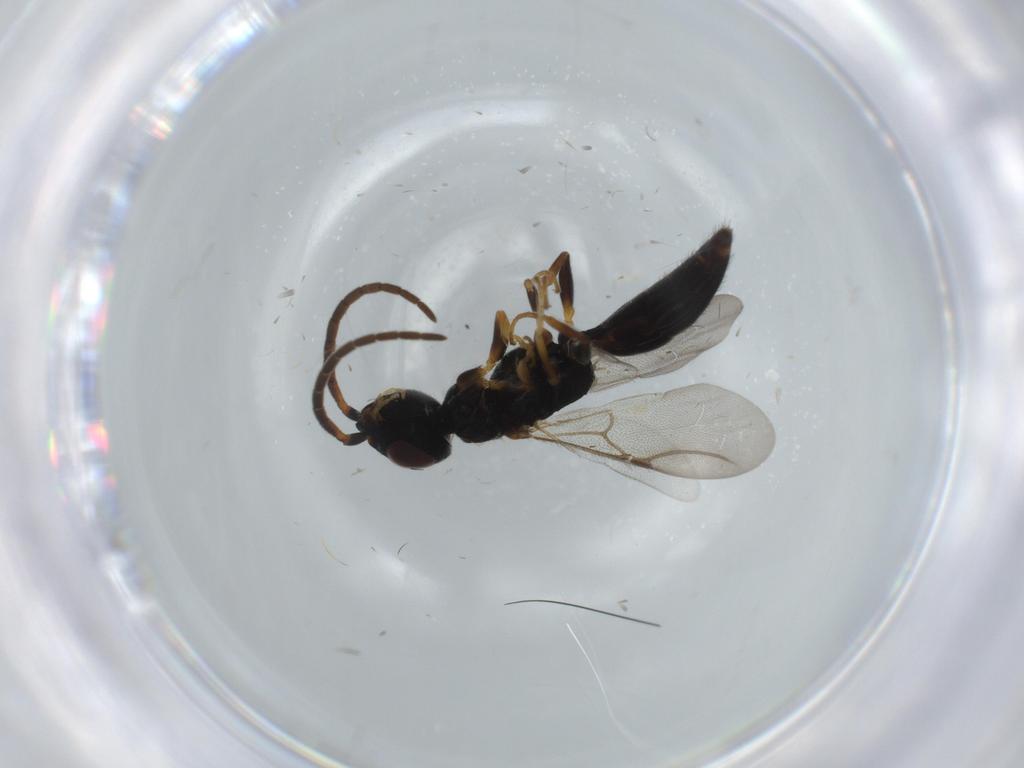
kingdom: Animalia
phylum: Arthropoda
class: Insecta
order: Hymenoptera
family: Bethylidae
